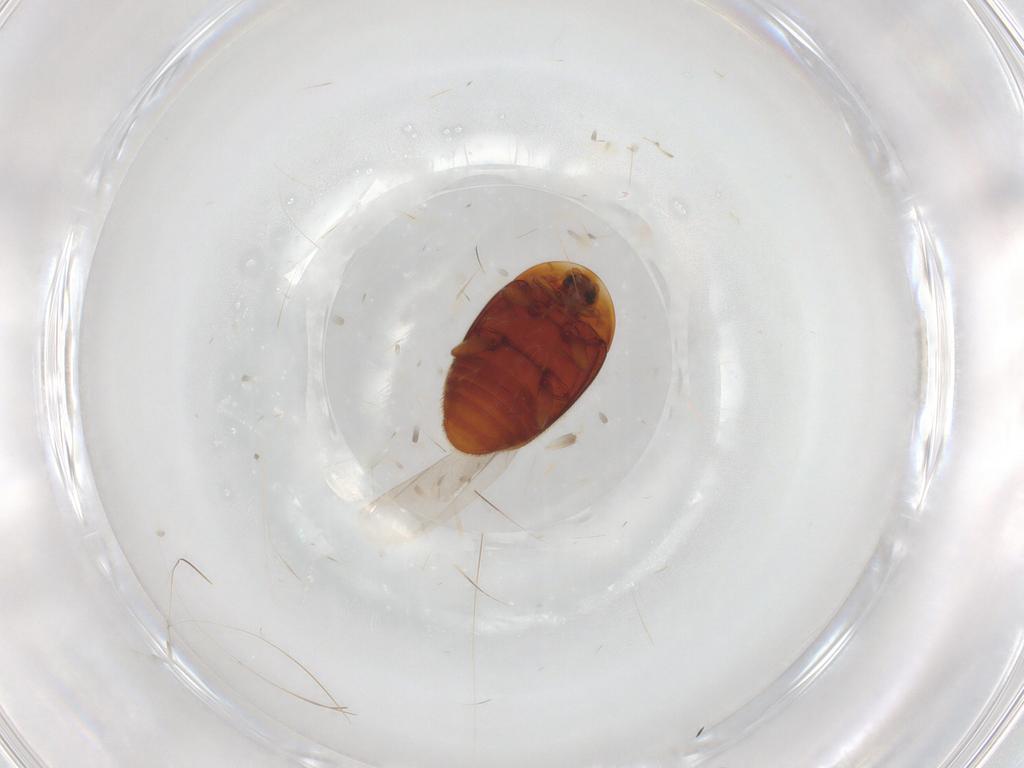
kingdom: Animalia
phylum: Arthropoda
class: Insecta
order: Coleoptera
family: Corylophidae
